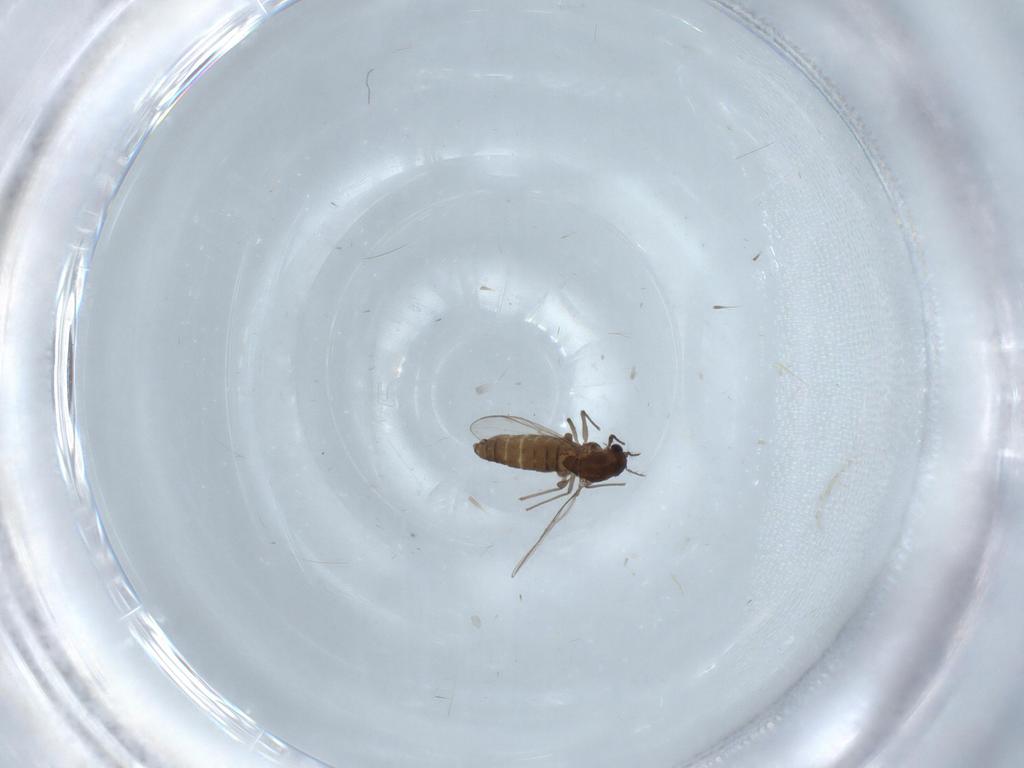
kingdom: Animalia
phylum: Arthropoda
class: Insecta
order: Diptera
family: Chironomidae
